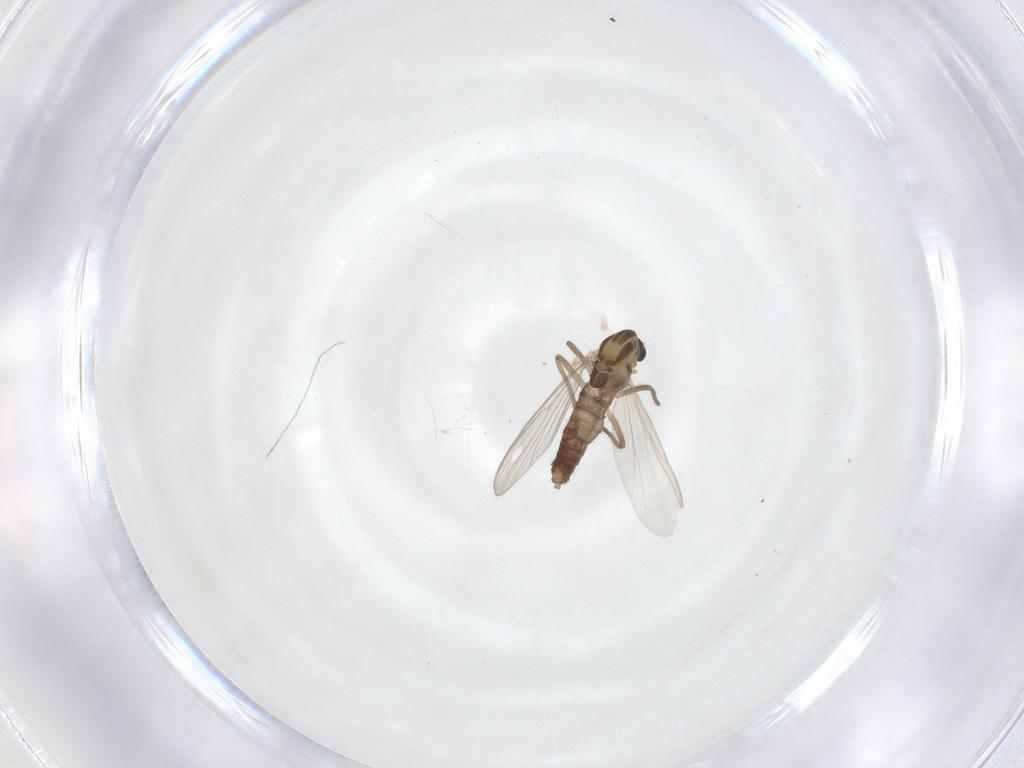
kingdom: Animalia
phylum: Arthropoda
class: Insecta
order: Diptera
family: Chironomidae
